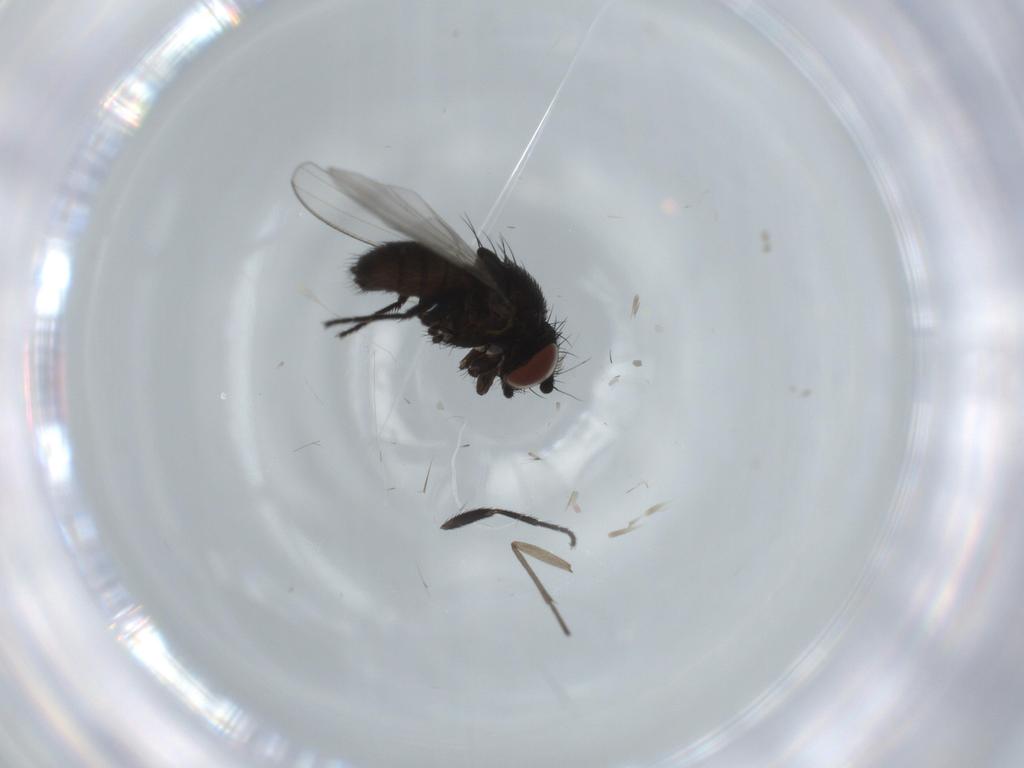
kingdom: Animalia
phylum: Arthropoda
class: Insecta
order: Diptera
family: Milichiidae
